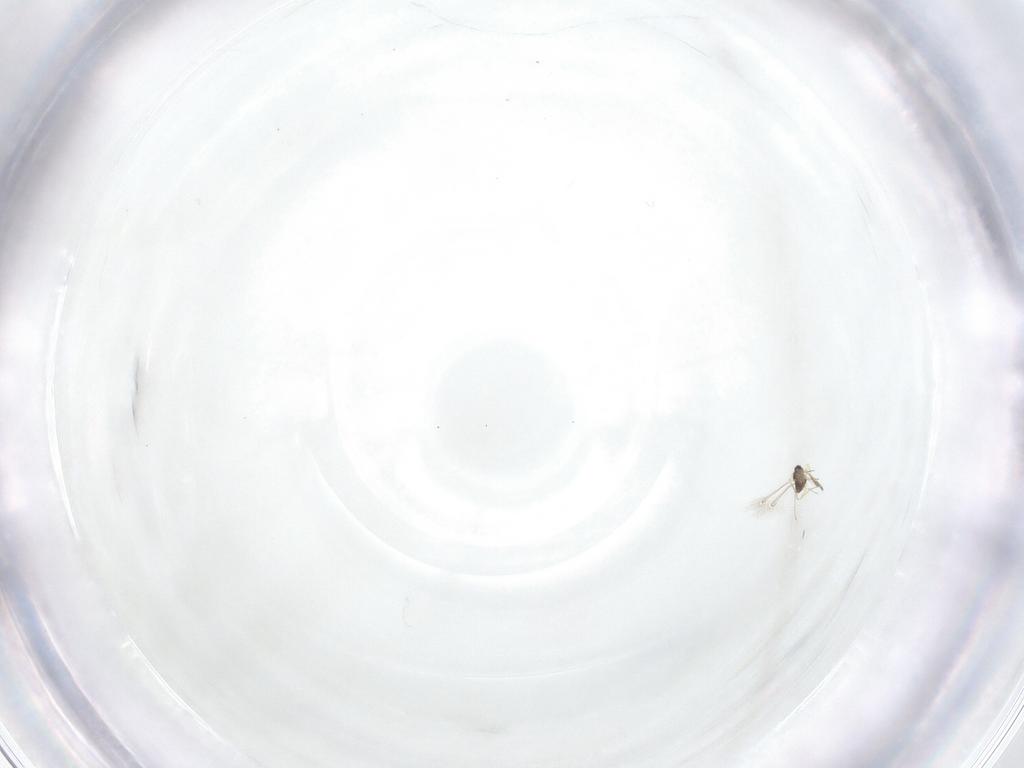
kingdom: Animalia
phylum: Arthropoda
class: Insecta
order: Hymenoptera
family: Mymaridae
